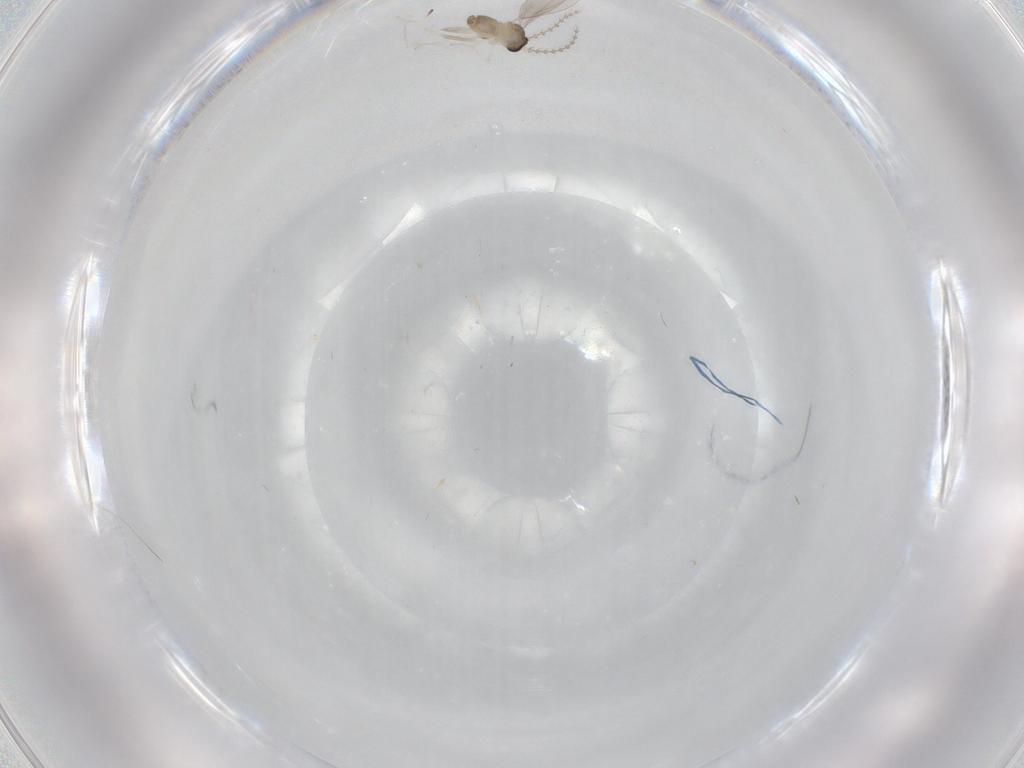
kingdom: Animalia
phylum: Arthropoda
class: Insecta
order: Diptera
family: Cecidomyiidae
